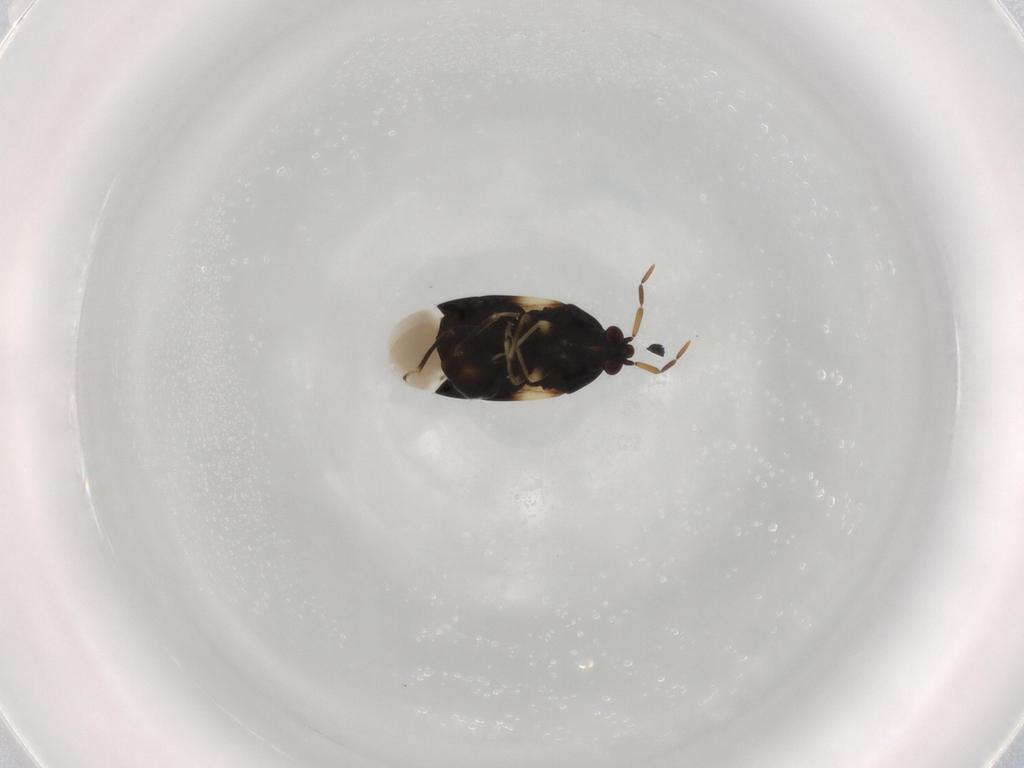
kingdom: Animalia
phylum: Arthropoda
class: Insecta
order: Hemiptera
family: Anthocoridae
